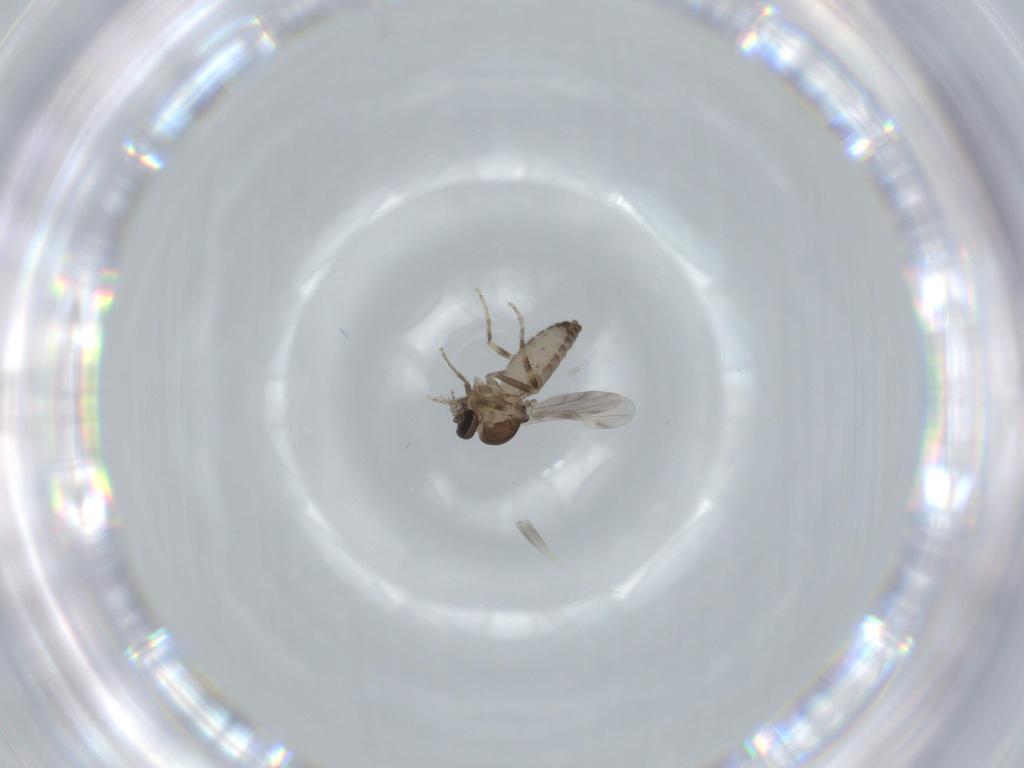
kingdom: Animalia
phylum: Arthropoda
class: Insecta
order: Diptera
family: Ceratopogonidae
